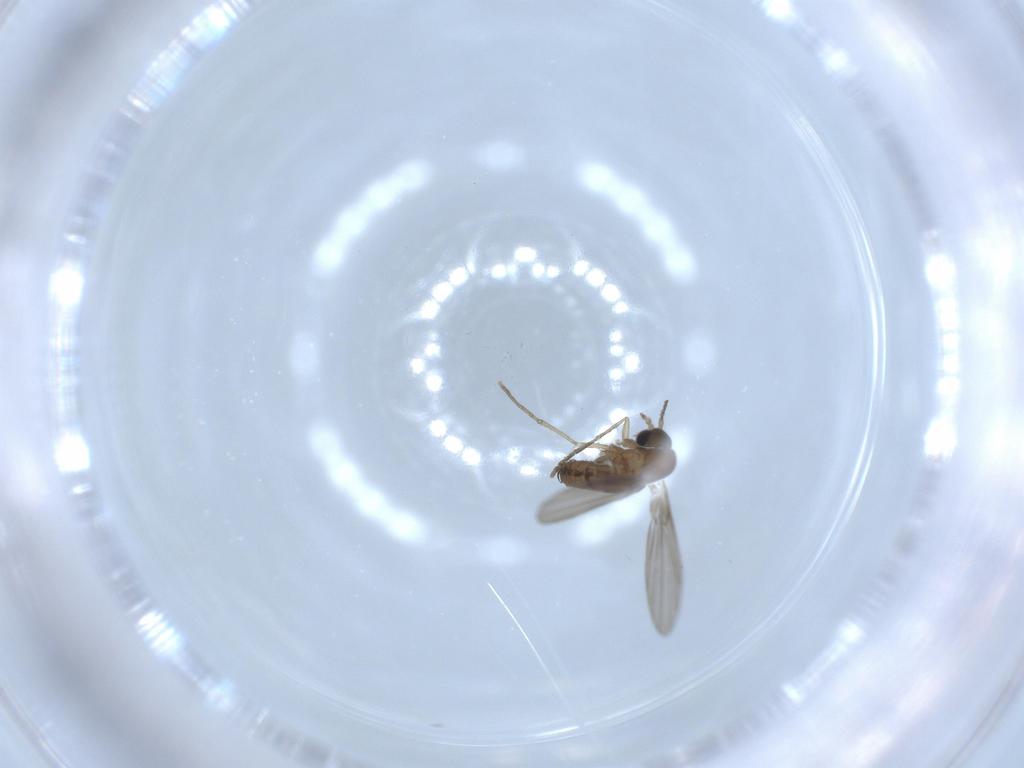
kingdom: Animalia
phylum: Arthropoda
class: Insecta
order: Diptera
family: Psychodidae
